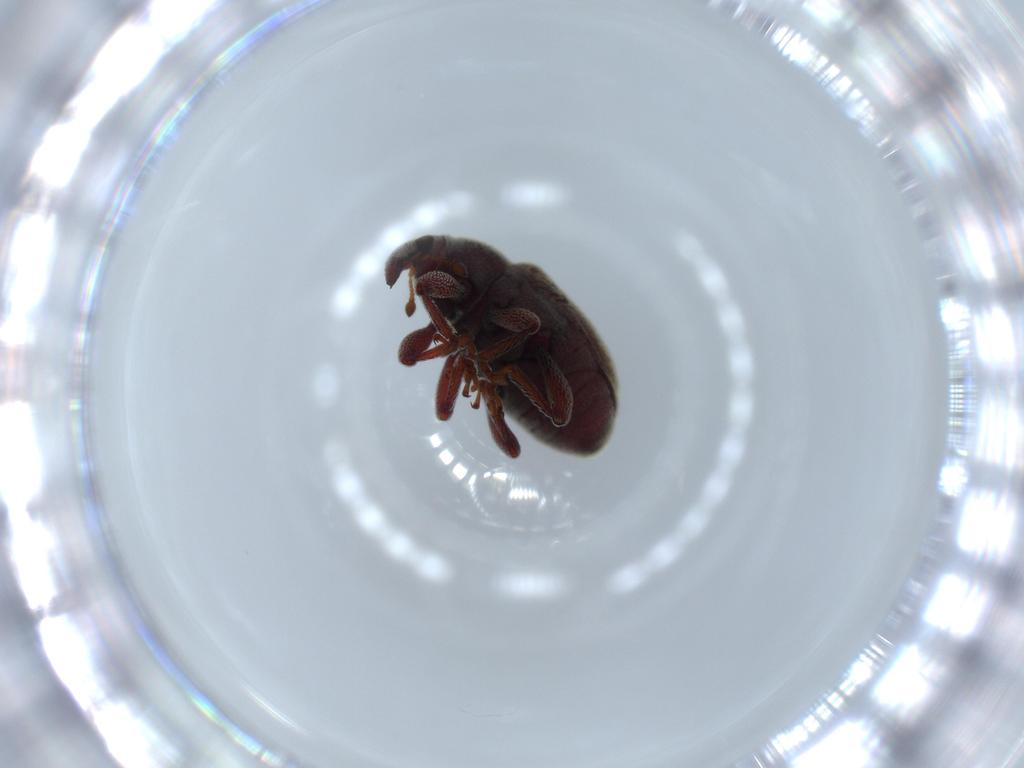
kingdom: Animalia
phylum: Arthropoda
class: Insecta
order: Coleoptera
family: Curculionidae
